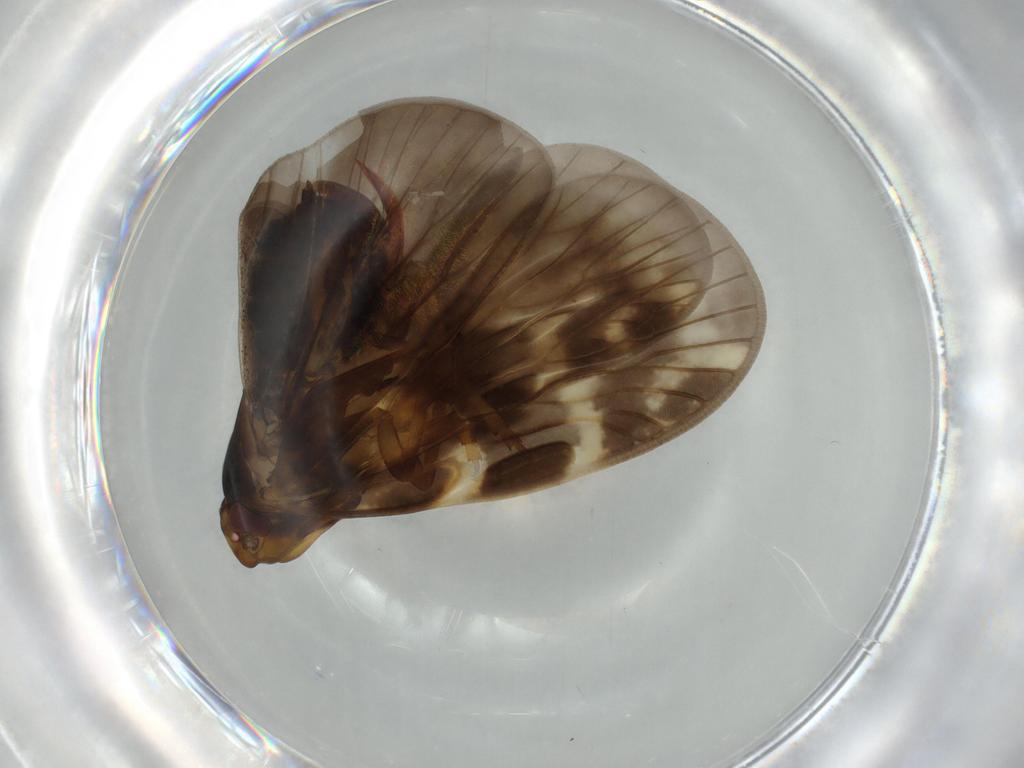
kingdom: Animalia
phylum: Arthropoda
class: Insecta
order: Hemiptera
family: Cixiidae
